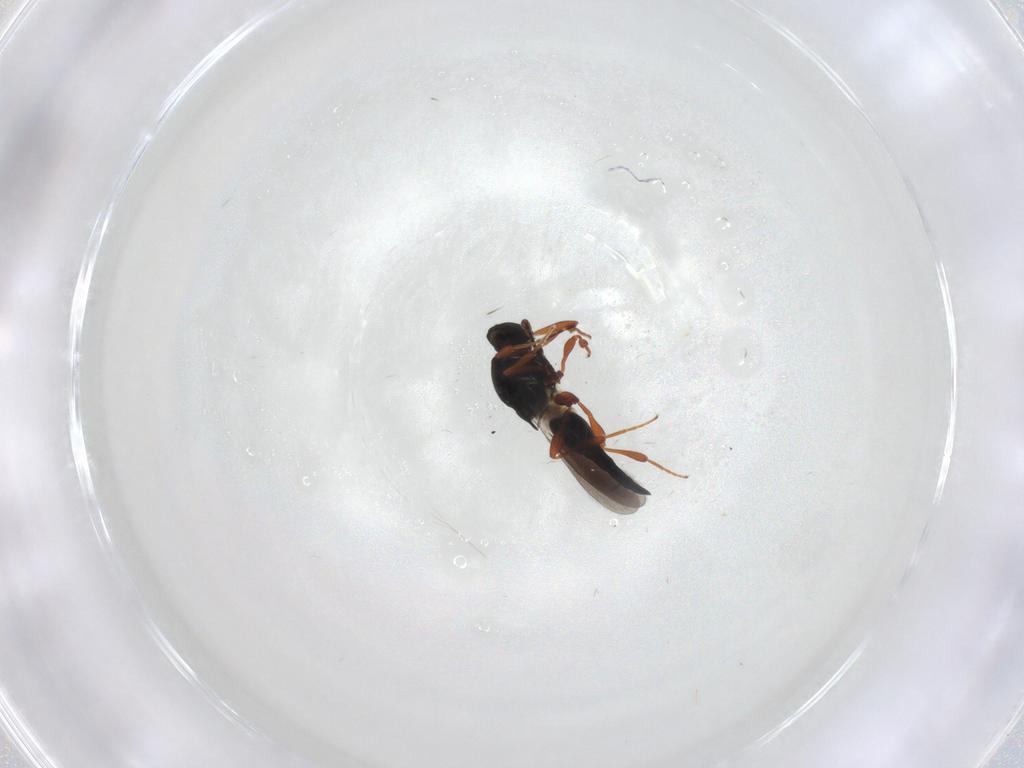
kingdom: Animalia
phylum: Arthropoda
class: Insecta
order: Hymenoptera
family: Platygastridae
